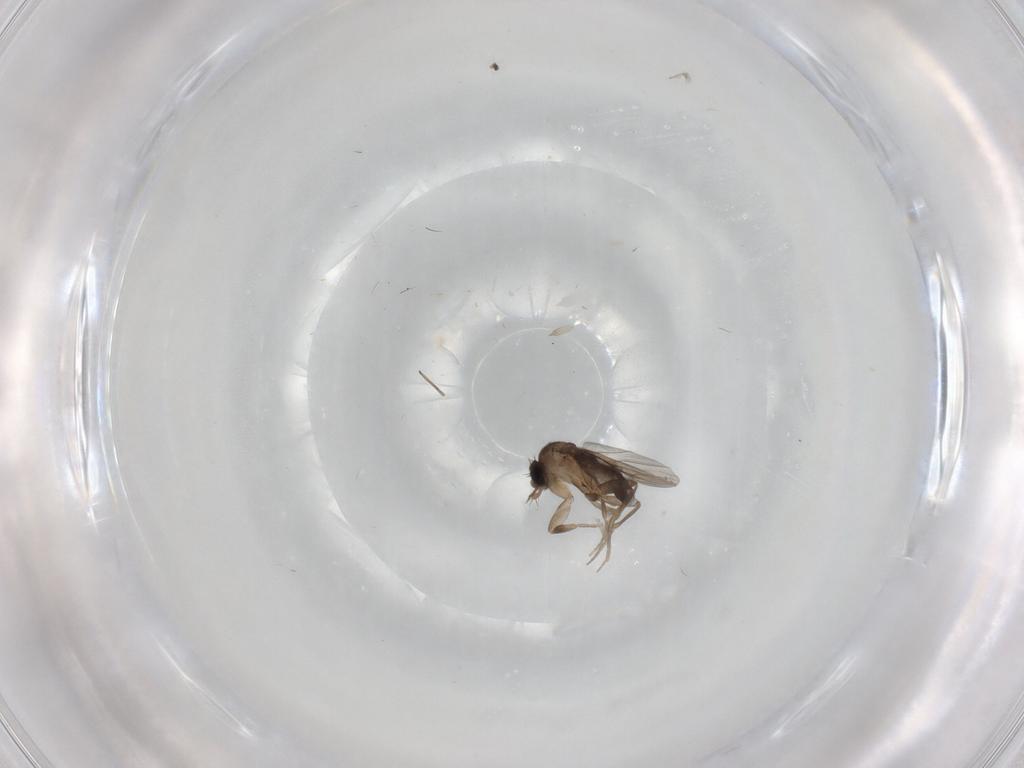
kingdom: Animalia
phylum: Arthropoda
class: Insecta
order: Diptera
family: Phoridae
